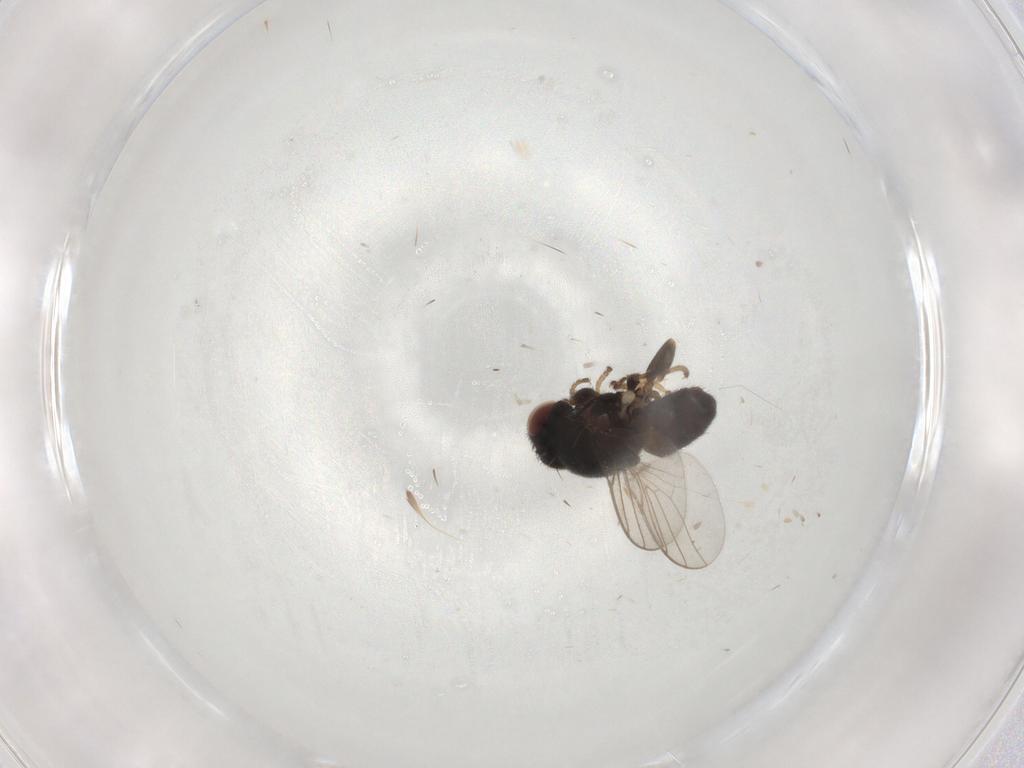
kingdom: Animalia
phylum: Arthropoda
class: Insecta
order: Diptera
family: Chloropidae
